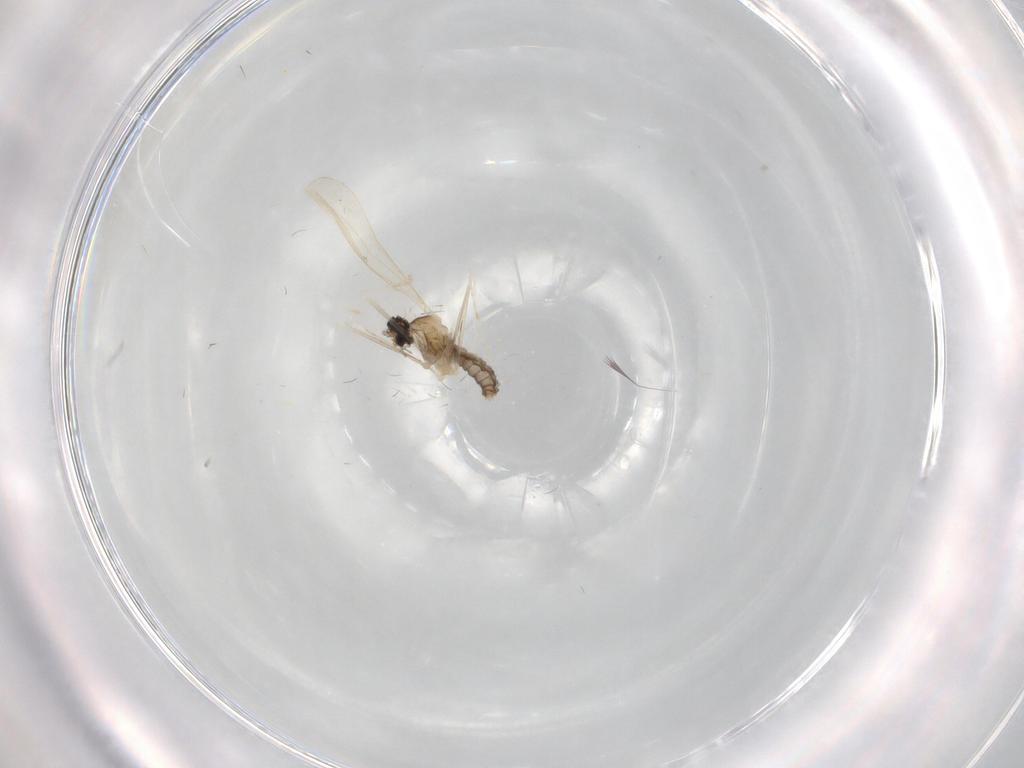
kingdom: Animalia
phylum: Arthropoda
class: Insecta
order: Diptera
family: Cecidomyiidae
